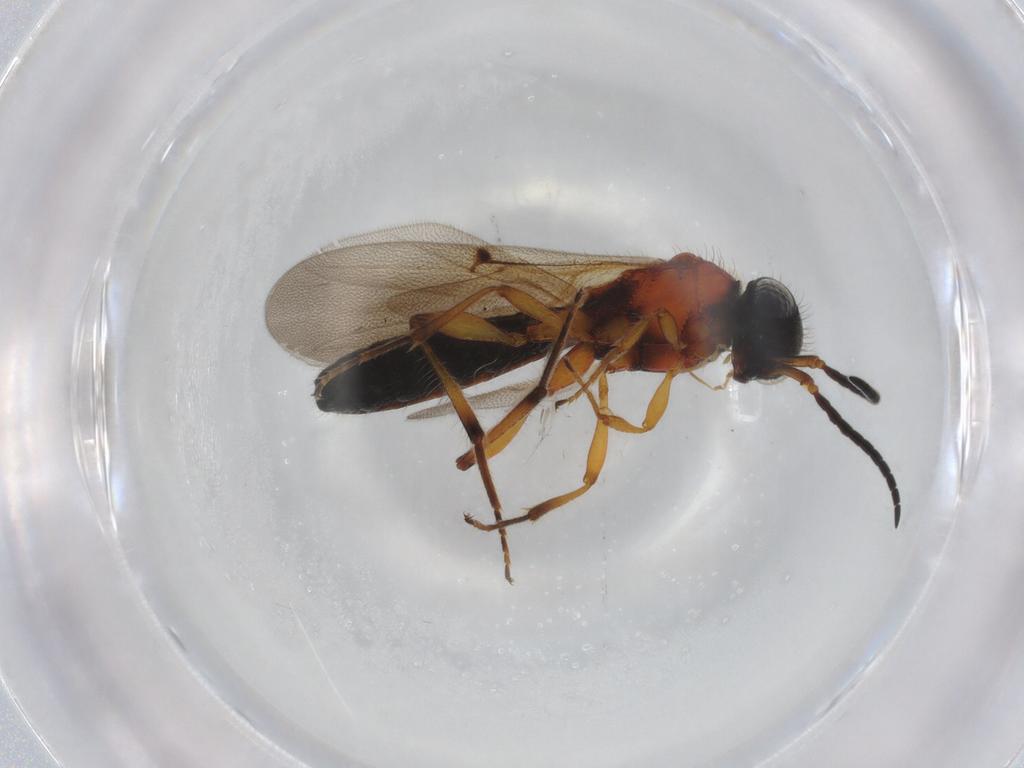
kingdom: Animalia
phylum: Arthropoda
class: Insecta
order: Hymenoptera
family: Scelionidae
